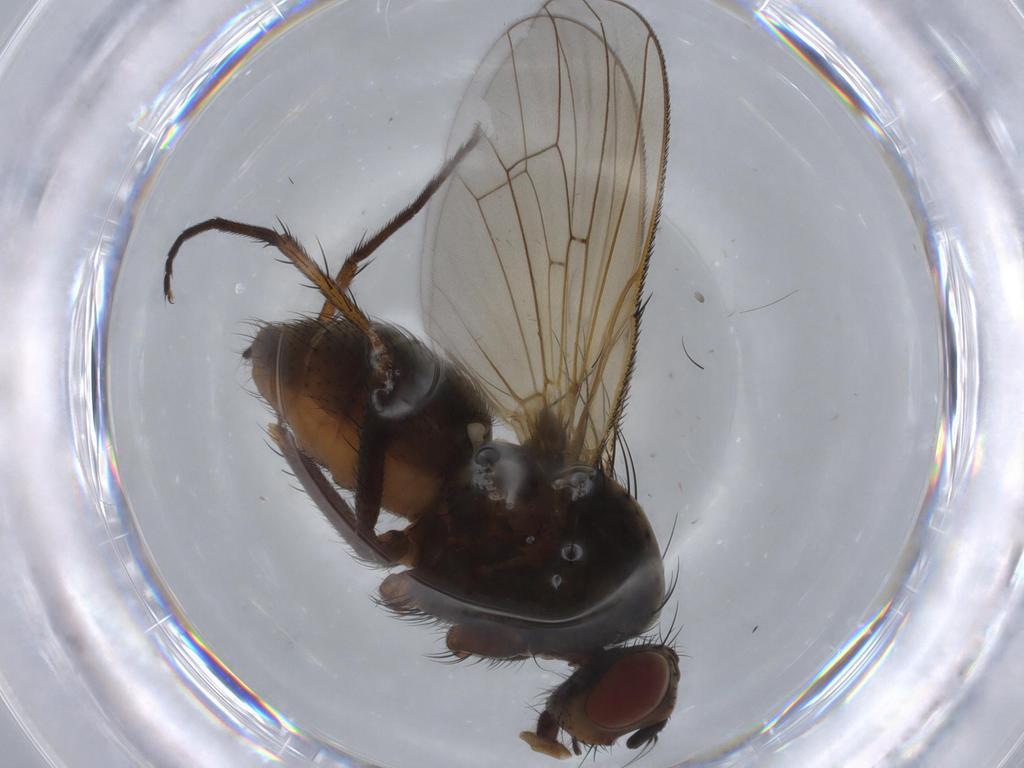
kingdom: Animalia
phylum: Arthropoda
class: Insecta
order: Diptera
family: Anthomyiidae
